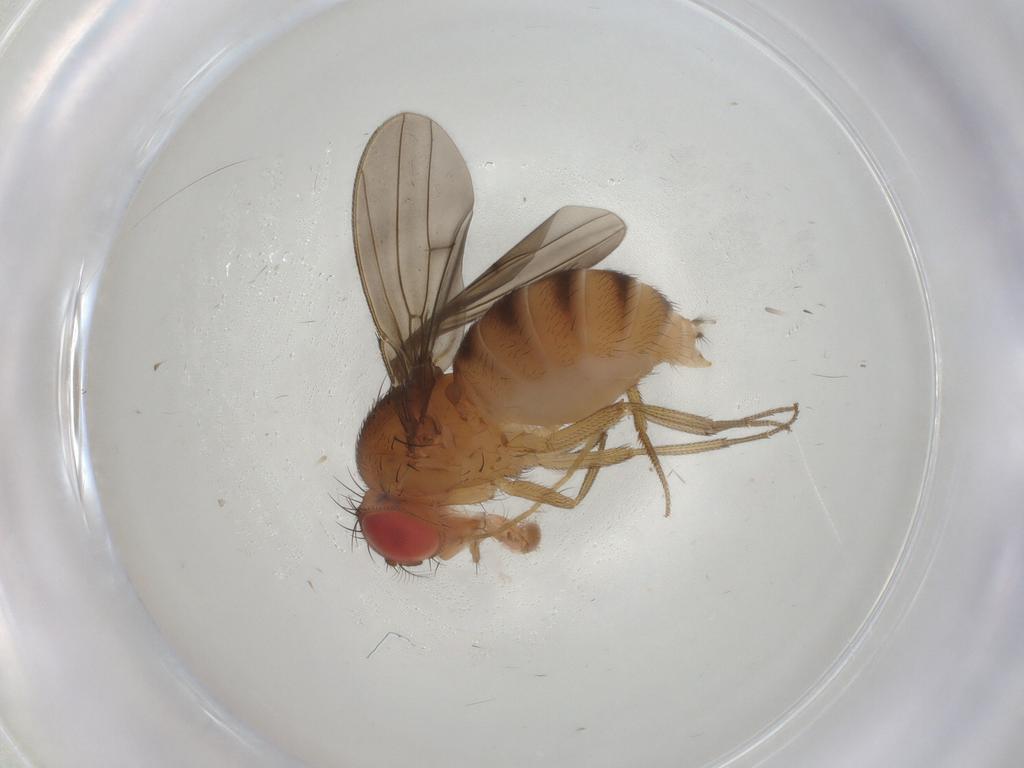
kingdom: Animalia
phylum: Arthropoda
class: Insecta
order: Diptera
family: Drosophilidae
